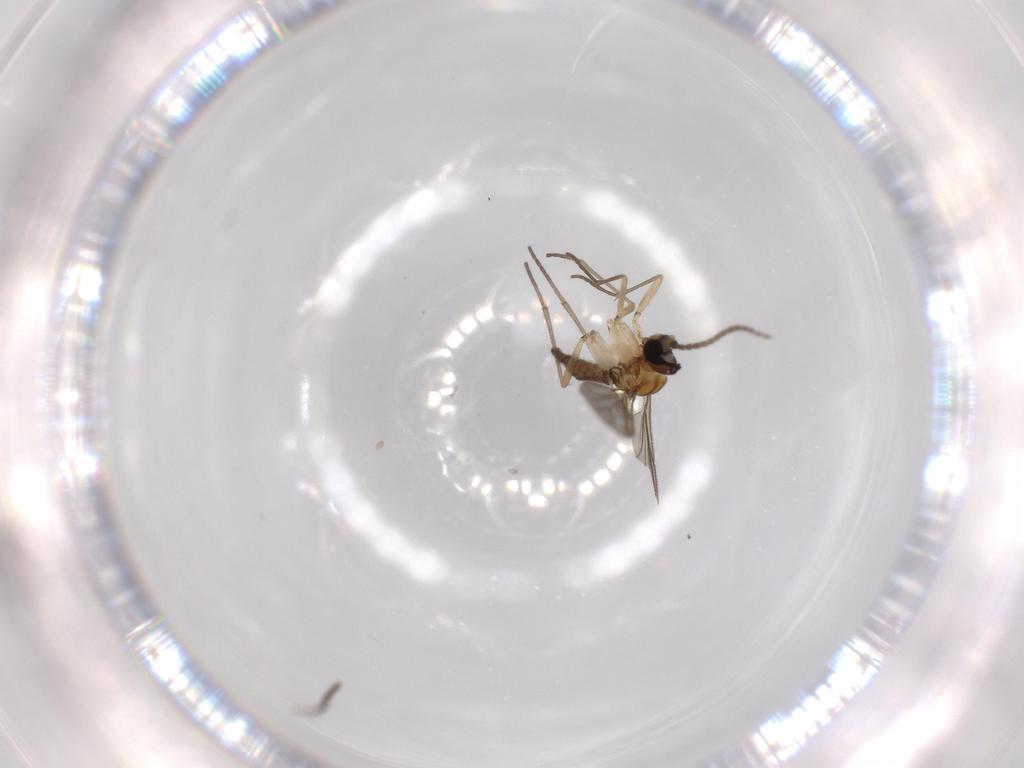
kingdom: Animalia
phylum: Arthropoda
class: Insecta
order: Diptera
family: Sciaridae
